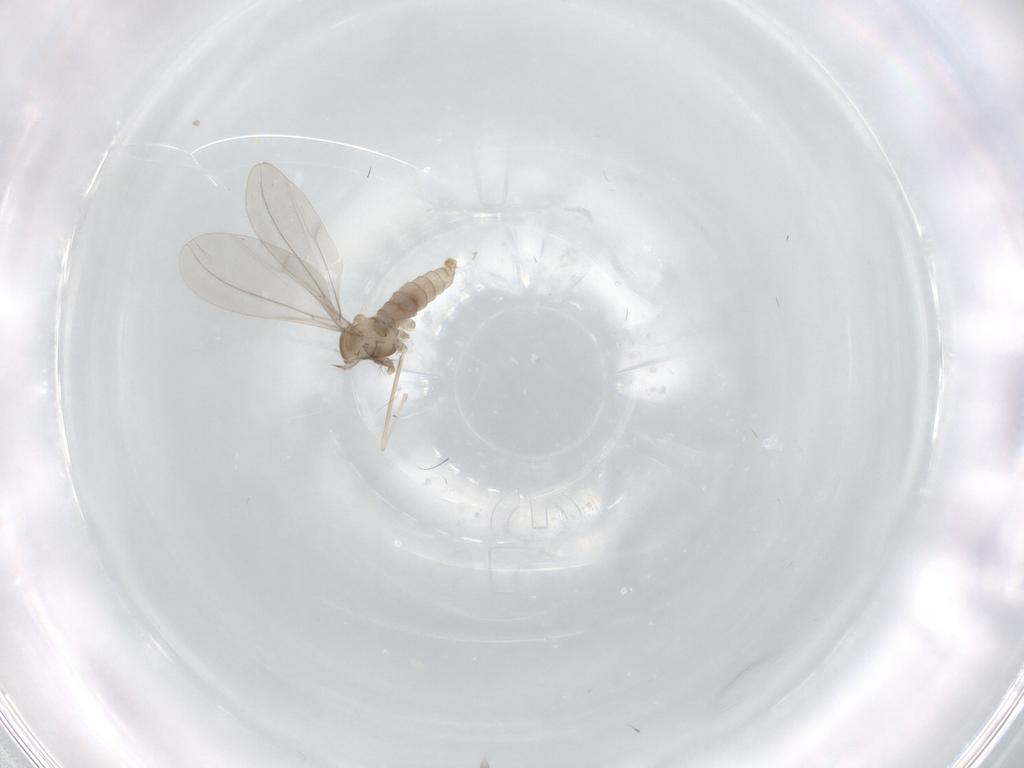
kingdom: Animalia
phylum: Arthropoda
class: Insecta
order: Diptera
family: Cecidomyiidae
